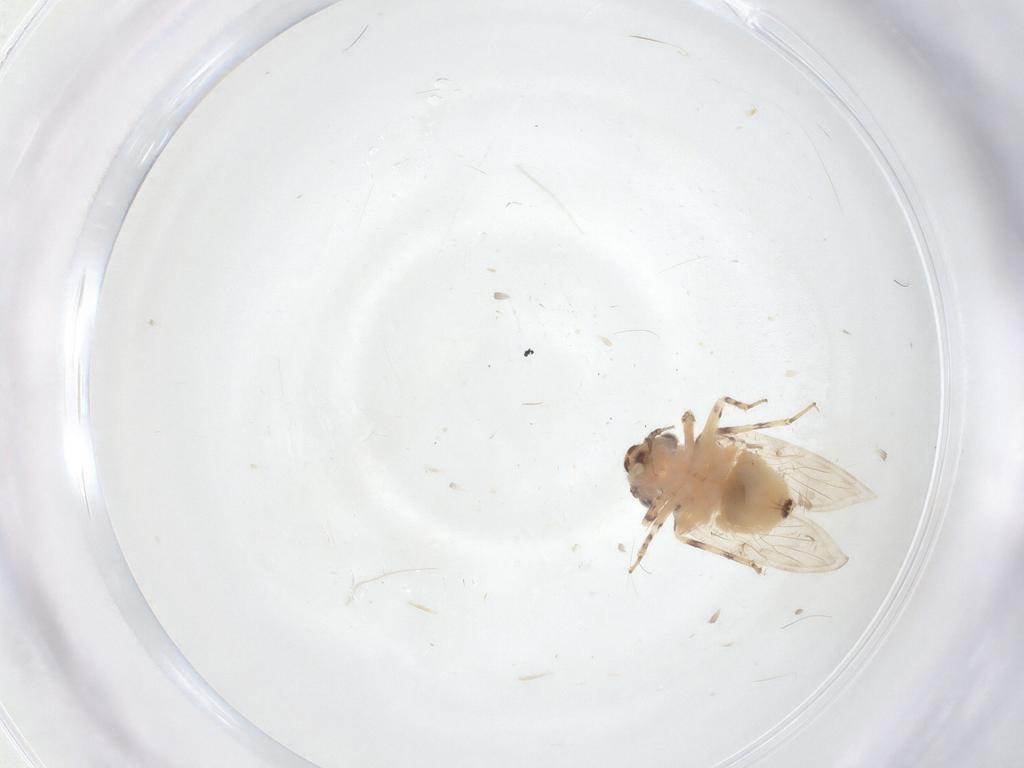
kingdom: Animalia
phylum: Arthropoda
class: Insecta
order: Psocodea
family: Lepidopsocidae
